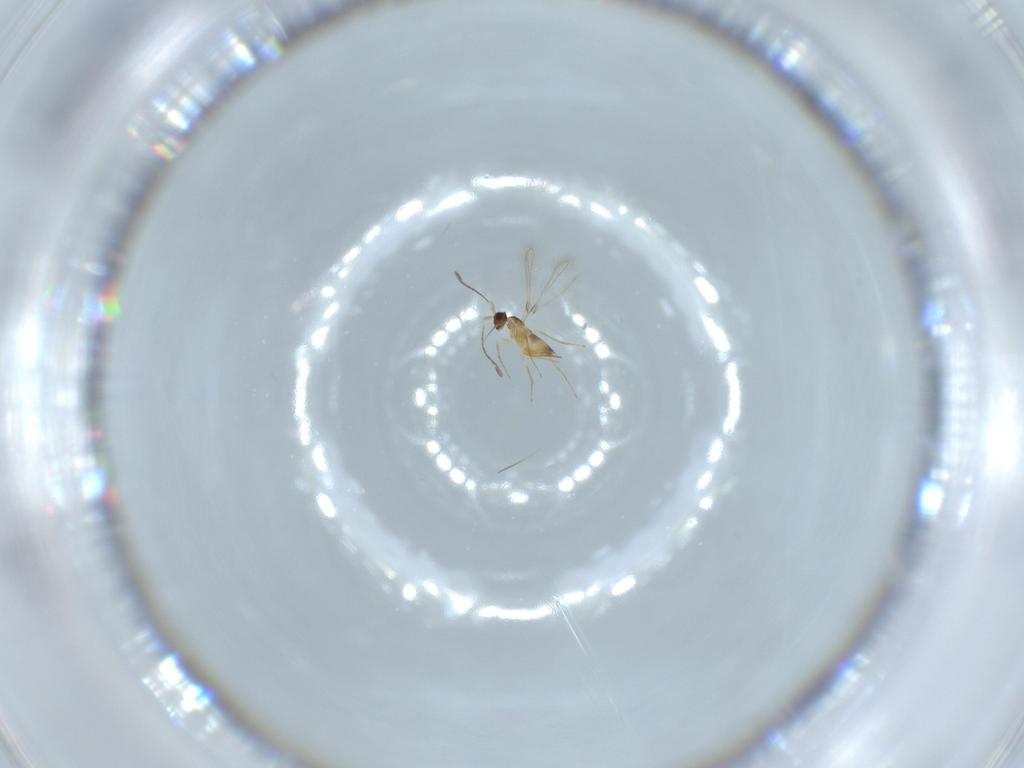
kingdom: Animalia
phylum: Arthropoda
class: Insecta
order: Hymenoptera
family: Mymaridae
